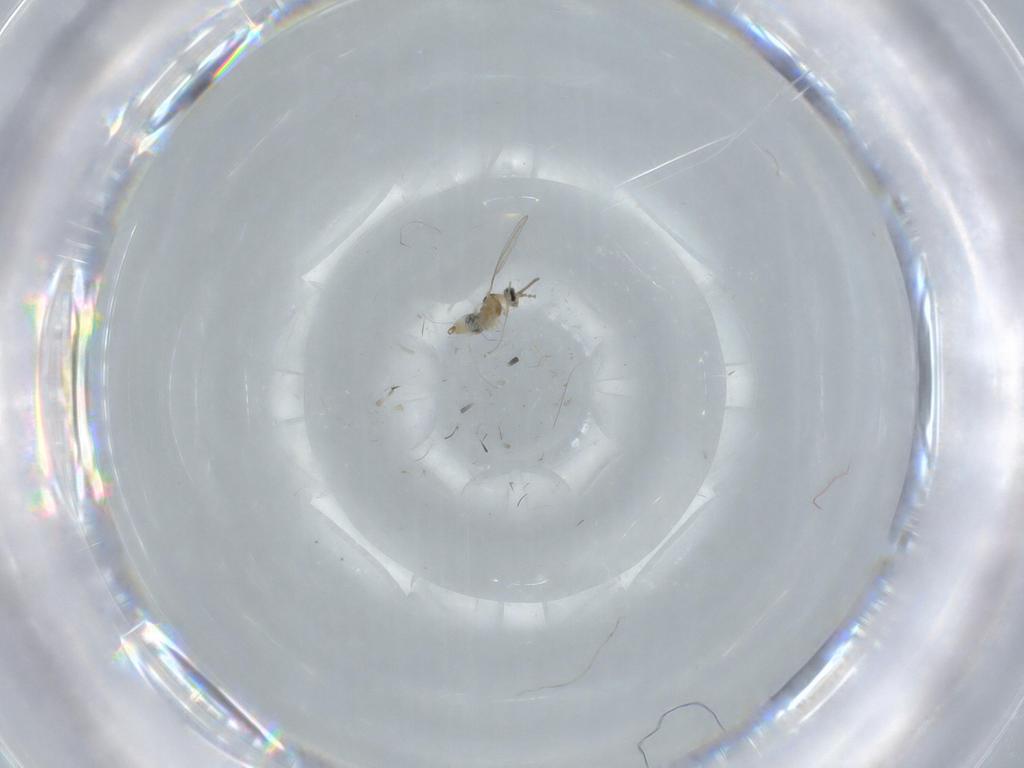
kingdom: Animalia
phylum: Arthropoda
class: Insecta
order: Diptera
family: Cecidomyiidae
